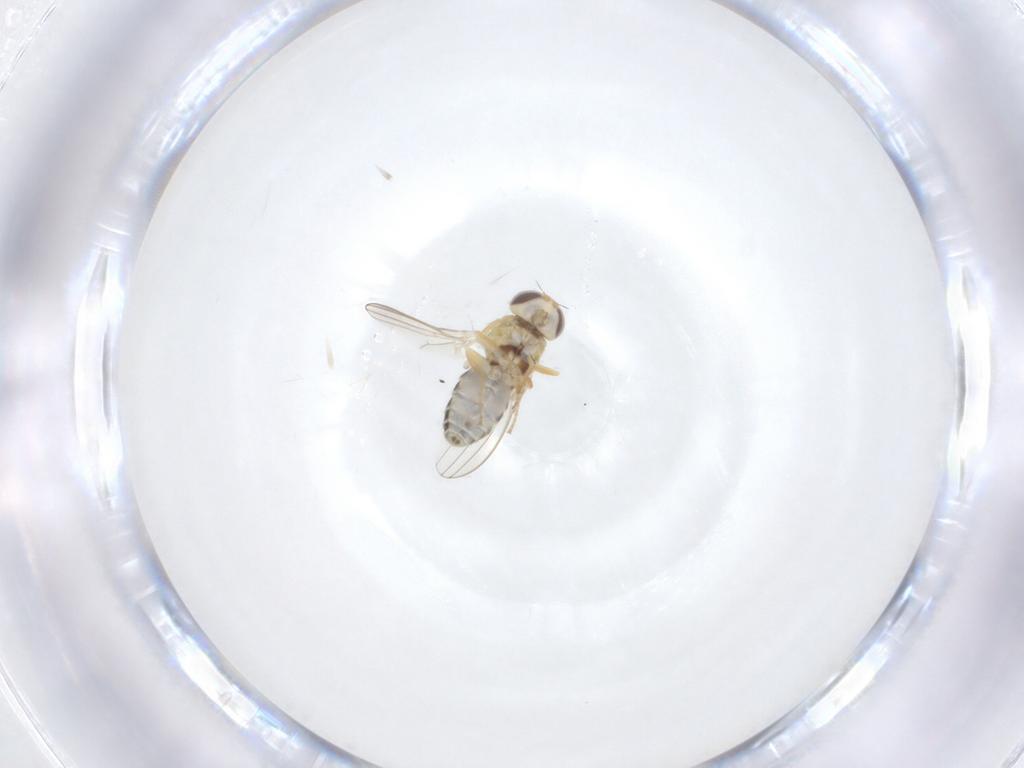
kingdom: Animalia
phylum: Arthropoda
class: Insecta
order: Diptera
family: Chyromyidae
